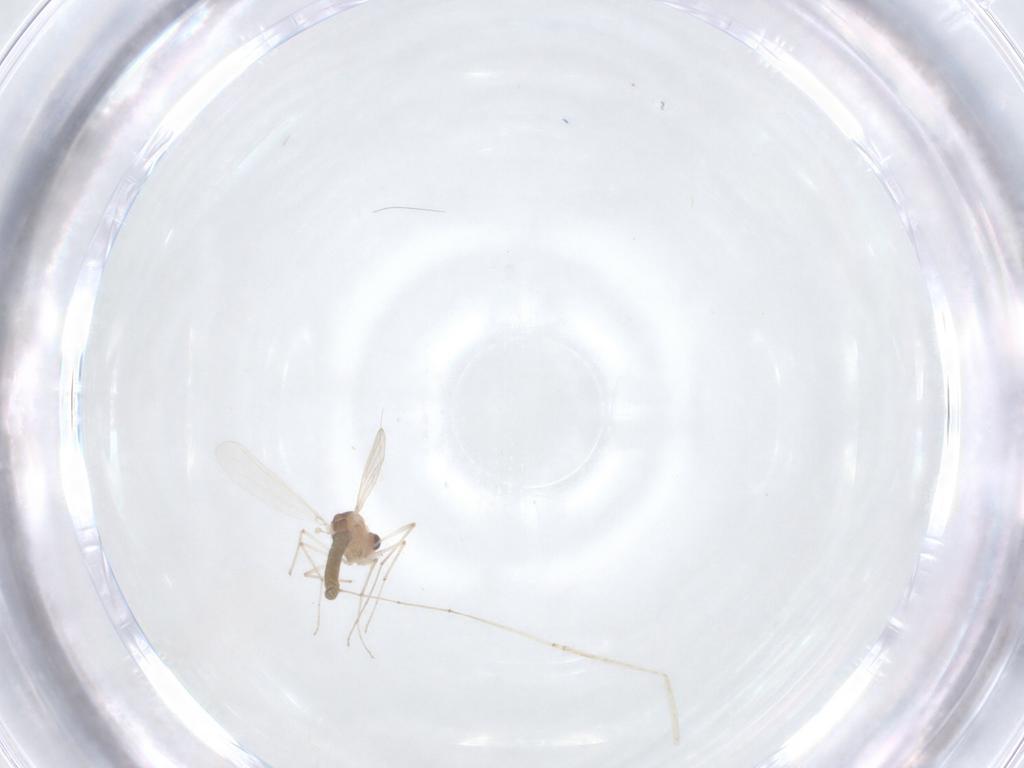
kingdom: Animalia
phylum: Arthropoda
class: Insecta
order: Diptera
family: Chironomidae
